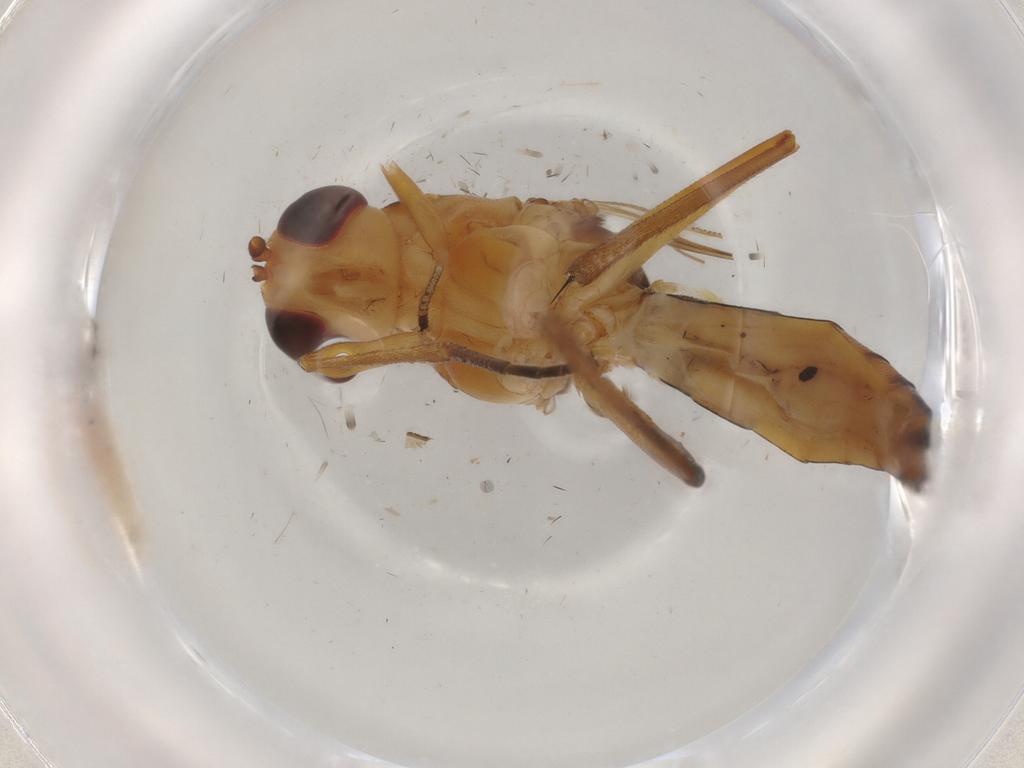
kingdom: Animalia
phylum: Arthropoda
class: Insecta
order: Diptera
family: Psilidae
